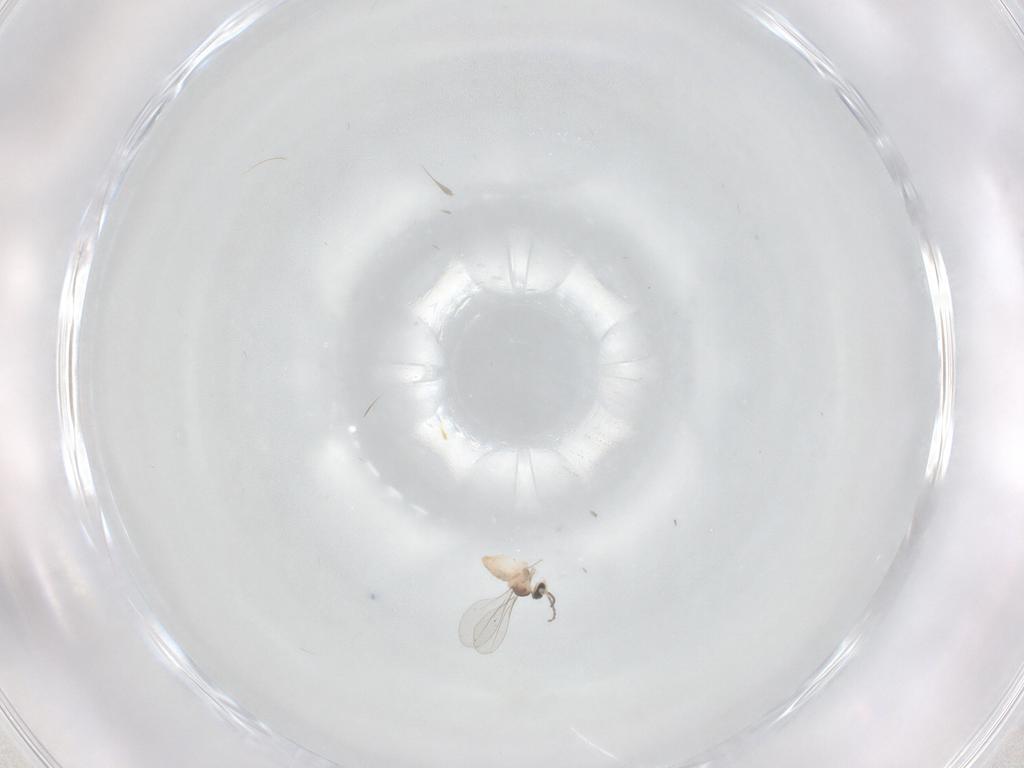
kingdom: Animalia
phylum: Arthropoda
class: Insecta
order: Diptera
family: Cecidomyiidae
